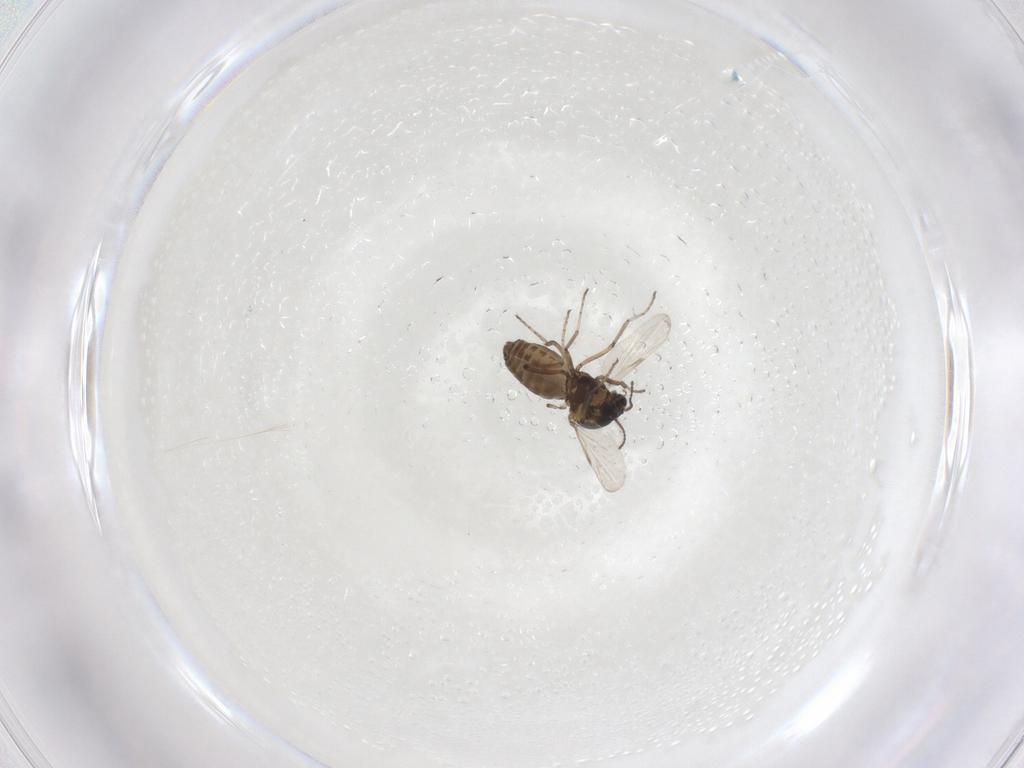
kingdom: Animalia
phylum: Arthropoda
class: Insecta
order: Diptera
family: Ceratopogonidae
